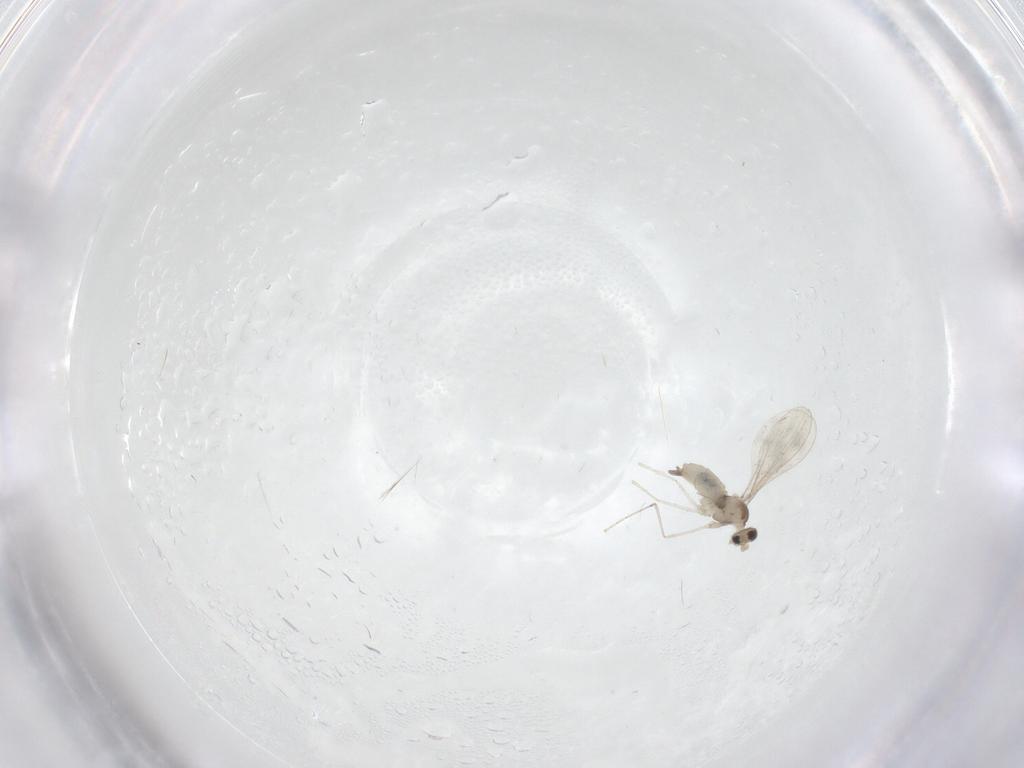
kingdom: Animalia
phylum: Arthropoda
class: Insecta
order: Diptera
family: Cecidomyiidae
